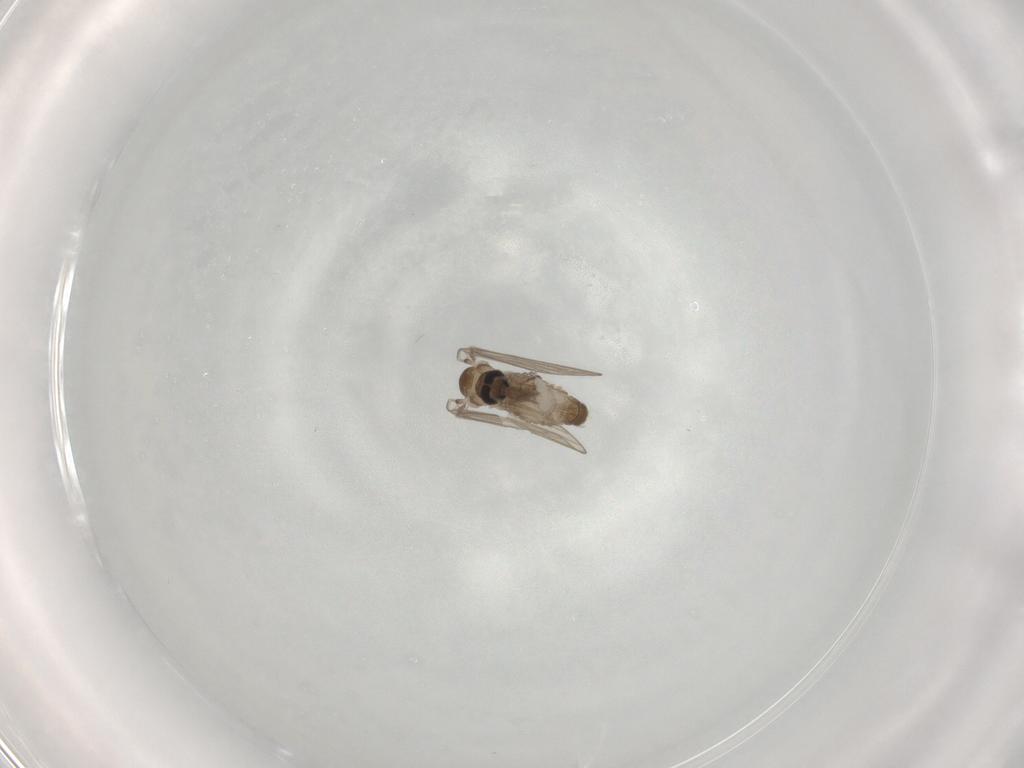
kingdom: Animalia
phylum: Arthropoda
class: Insecta
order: Diptera
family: Psychodidae
